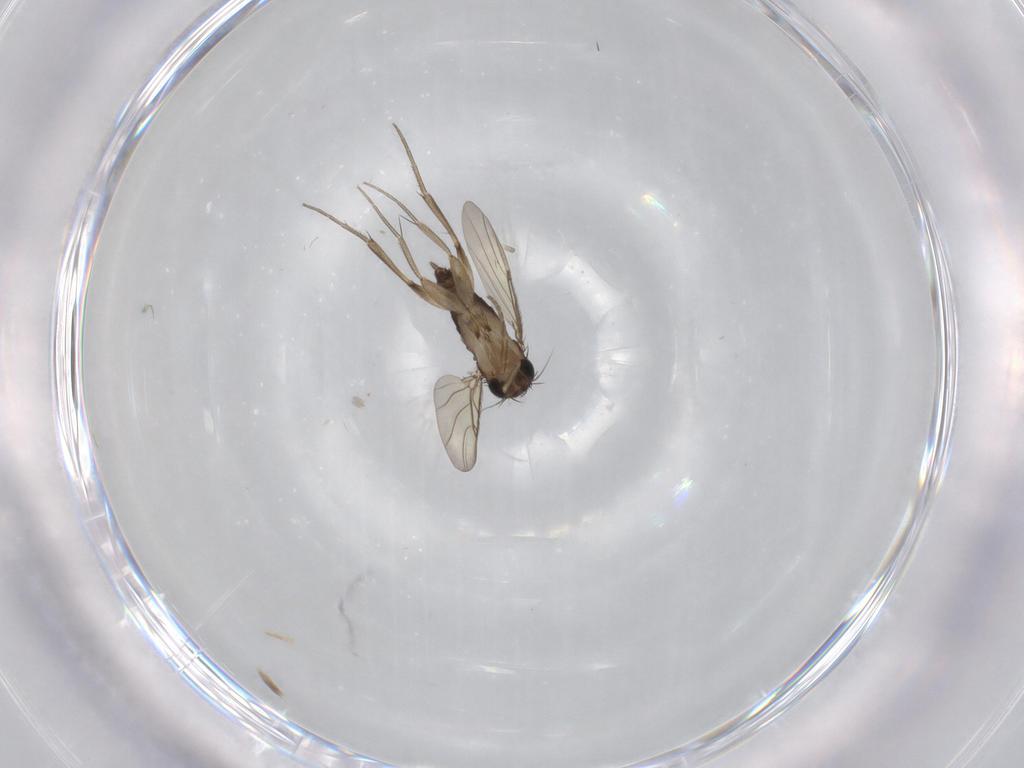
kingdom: Animalia
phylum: Arthropoda
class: Insecta
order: Diptera
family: Phoridae
